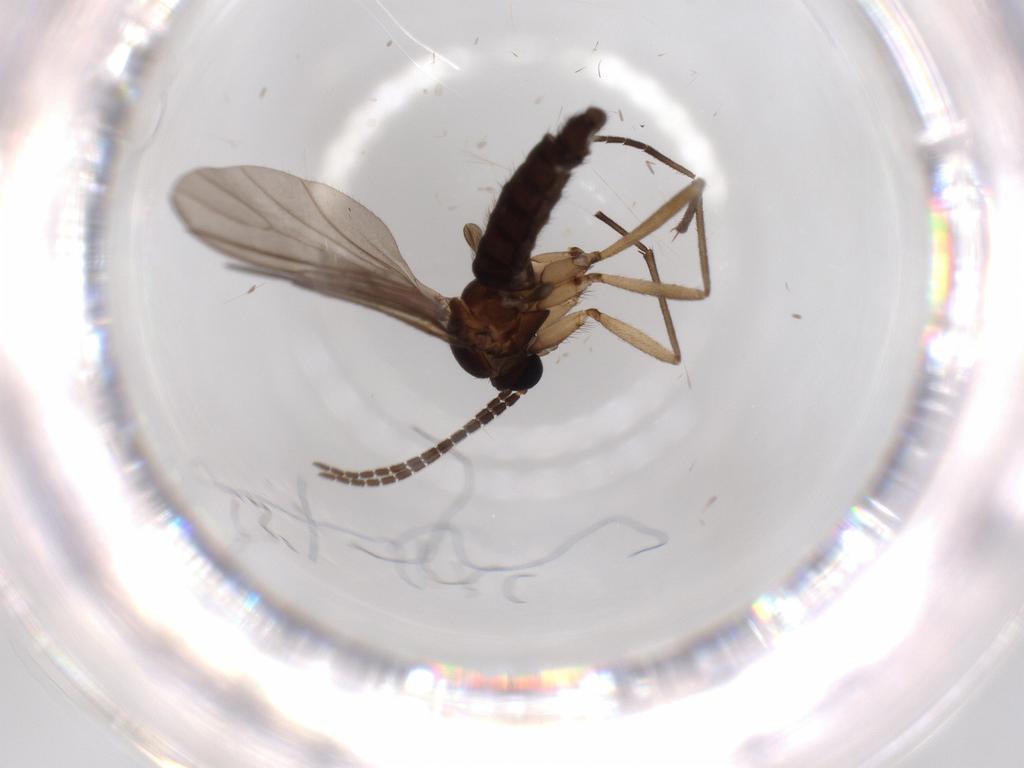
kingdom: Animalia
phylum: Arthropoda
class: Insecta
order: Diptera
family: Sciaridae
